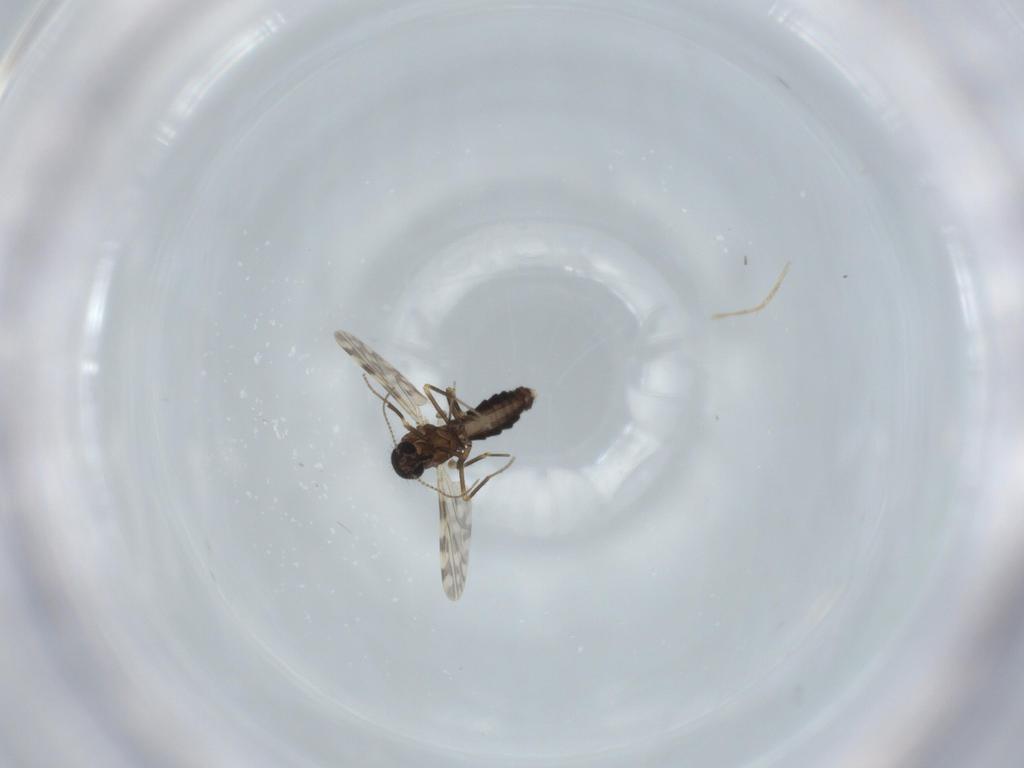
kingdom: Animalia
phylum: Arthropoda
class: Insecta
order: Diptera
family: Ceratopogonidae
